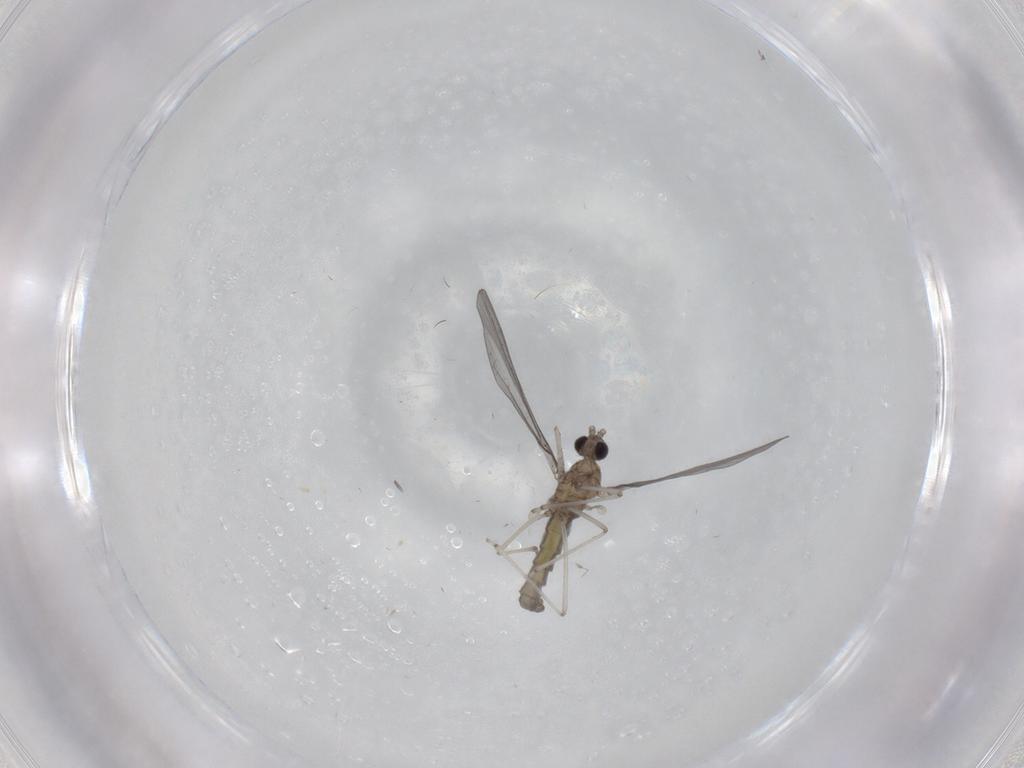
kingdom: Animalia
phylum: Arthropoda
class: Insecta
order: Diptera
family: Cecidomyiidae
